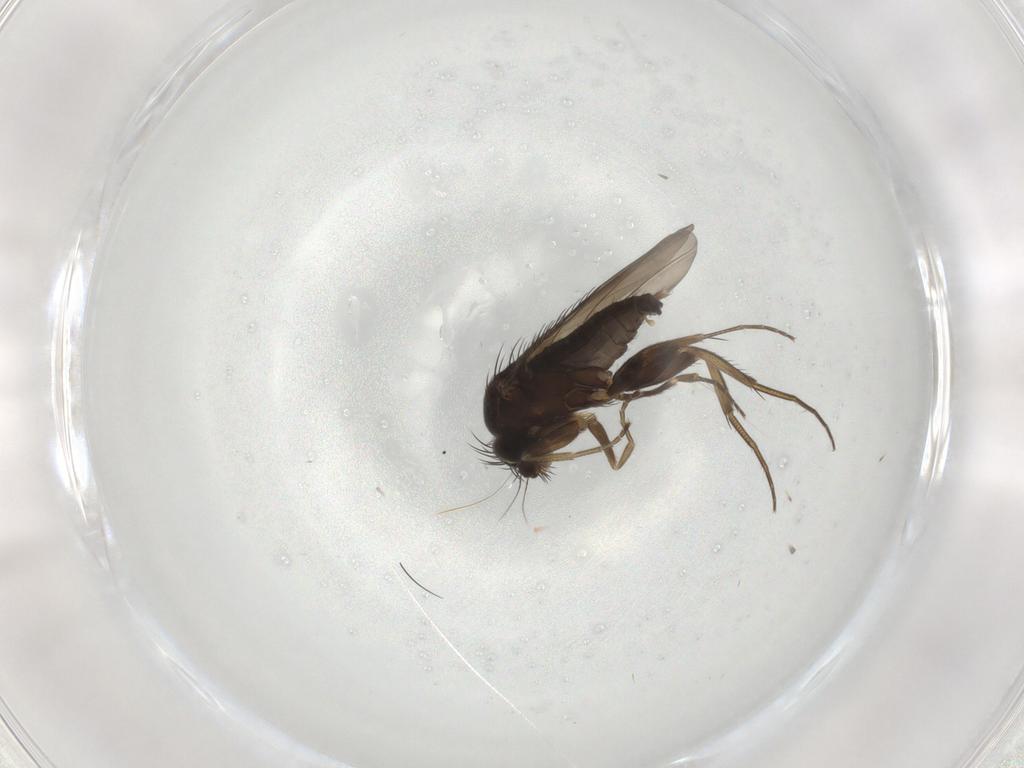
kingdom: Animalia
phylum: Arthropoda
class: Insecta
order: Diptera
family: Phoridae
